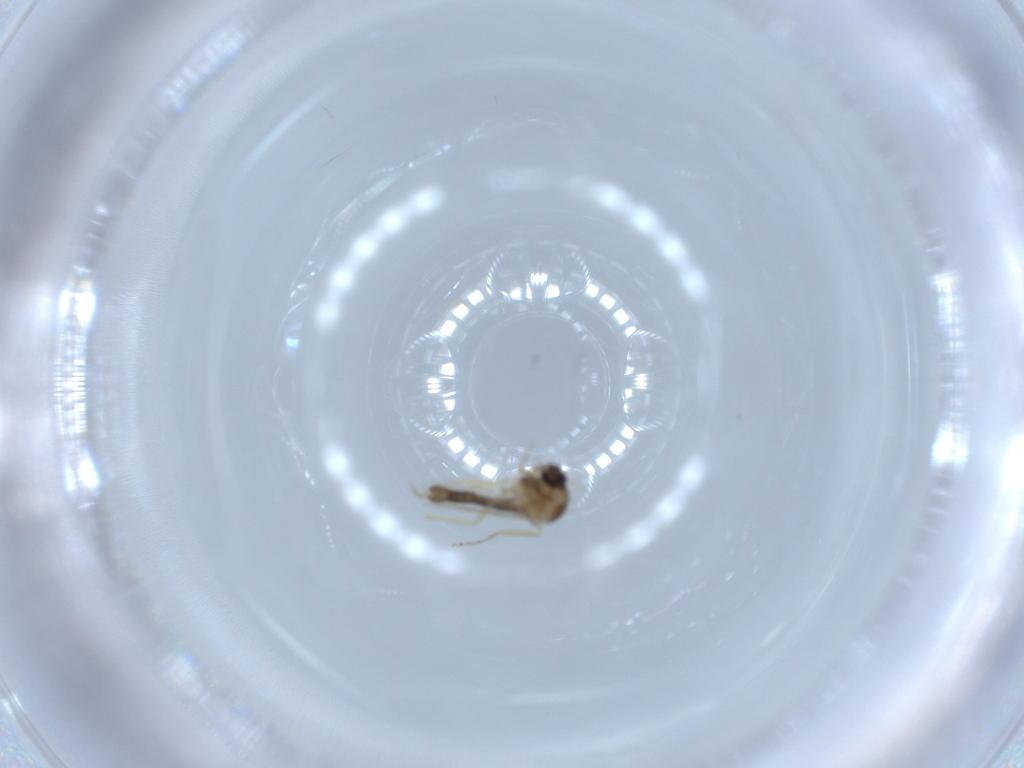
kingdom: Animalia
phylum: Arthropoda
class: Insecta
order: Diptera
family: Ceratopogonidae
